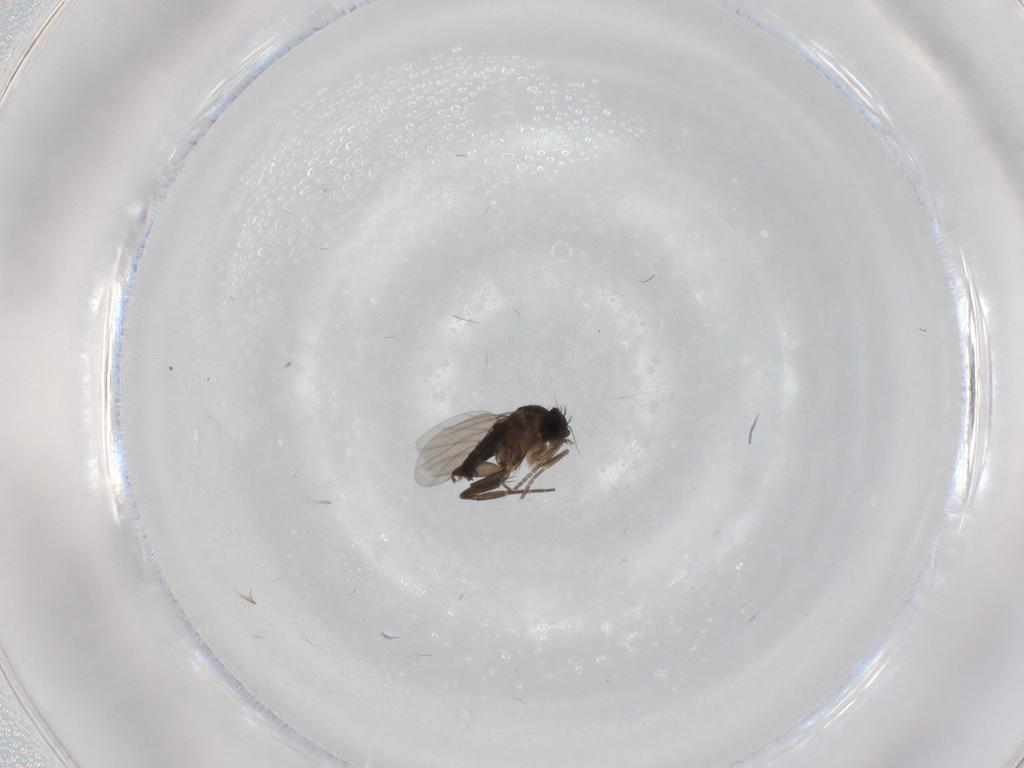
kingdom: Animalia
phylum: Arthropoda
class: Insecta
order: Diptera
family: Phoridae
